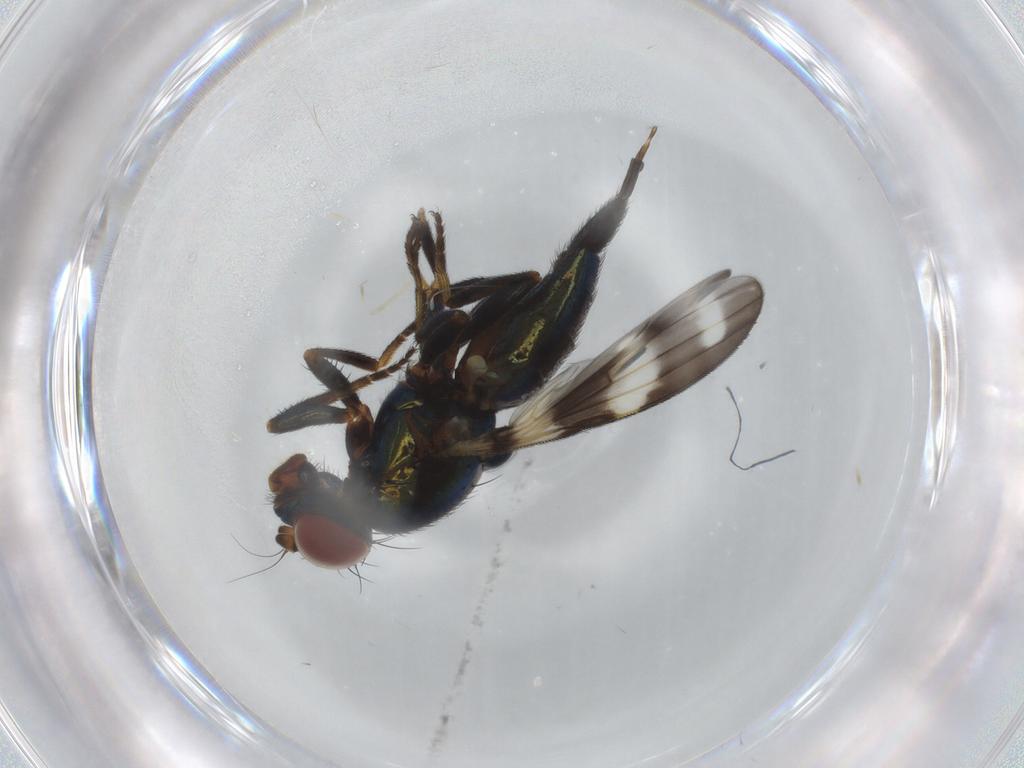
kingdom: Animalia
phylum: Arthropoda
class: Insecta
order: Diptera
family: Ulidiidae
